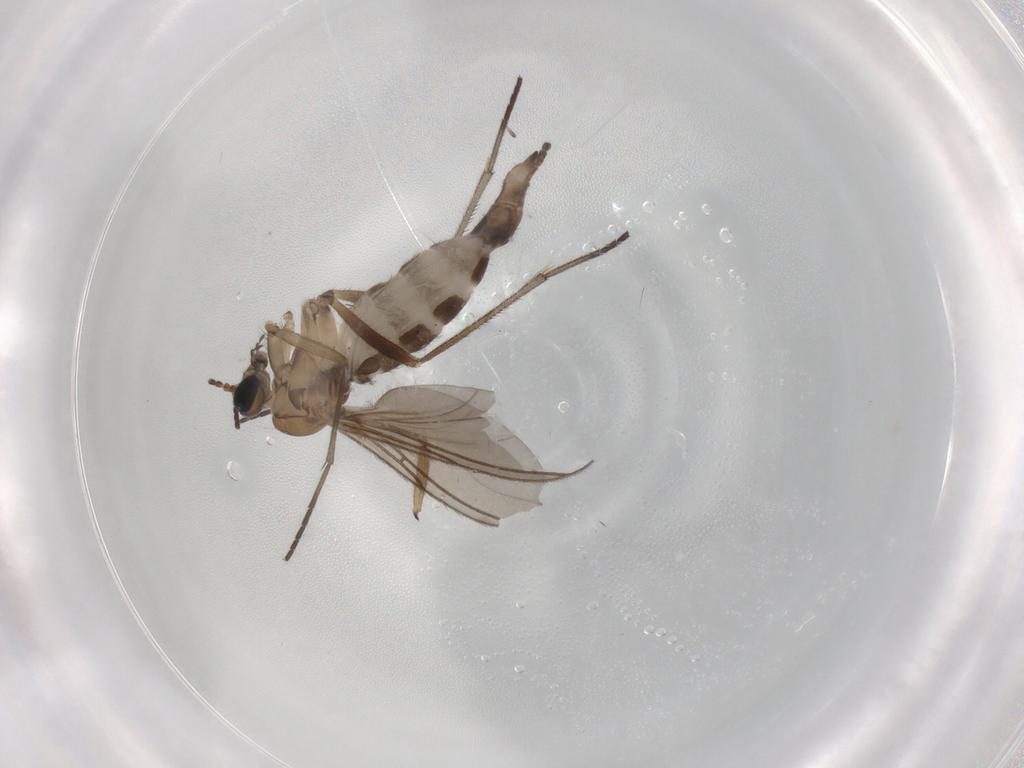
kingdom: Animalia
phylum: Arthropoda
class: Insecta
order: Diptera
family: Sciaridae
